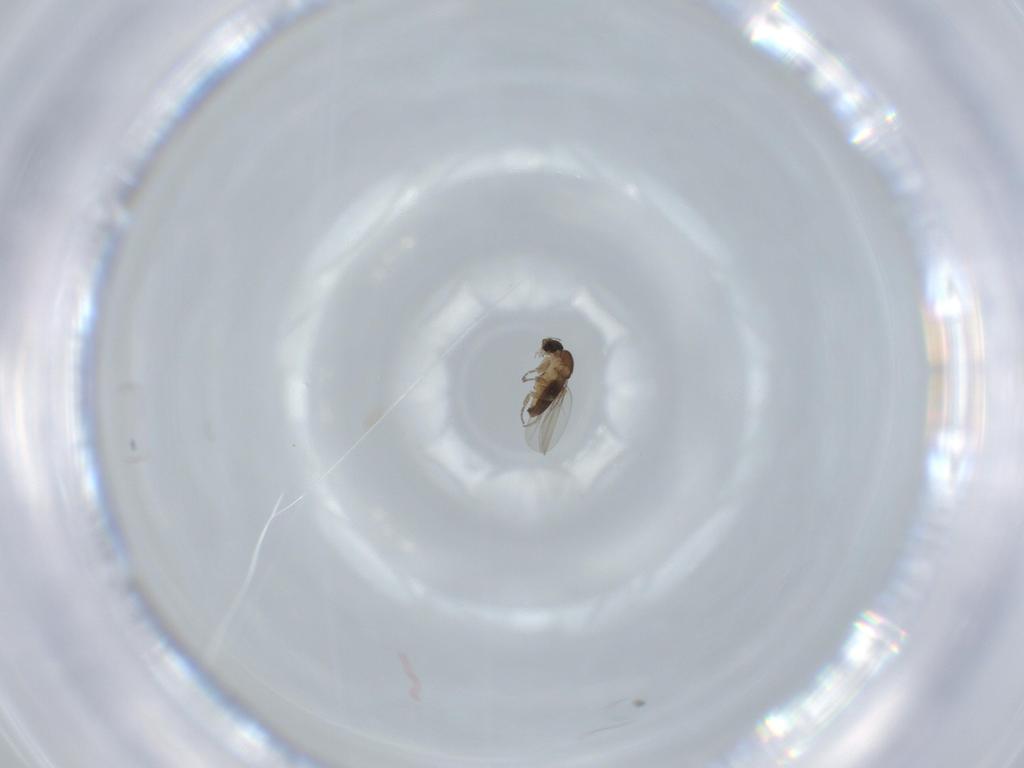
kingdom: Animalia
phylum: Arthropoda
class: Insecta
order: Diptera
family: Phoridae
